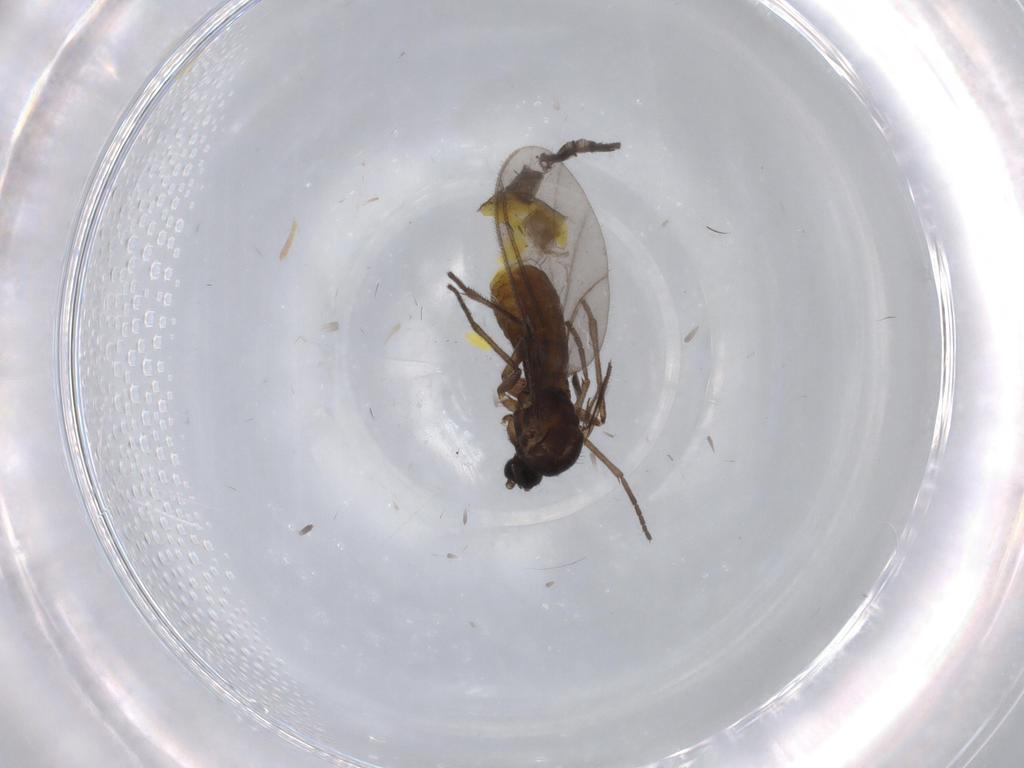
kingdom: Animalia
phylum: Arthropoda
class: Insecta
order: Diptera
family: Sciaridae
